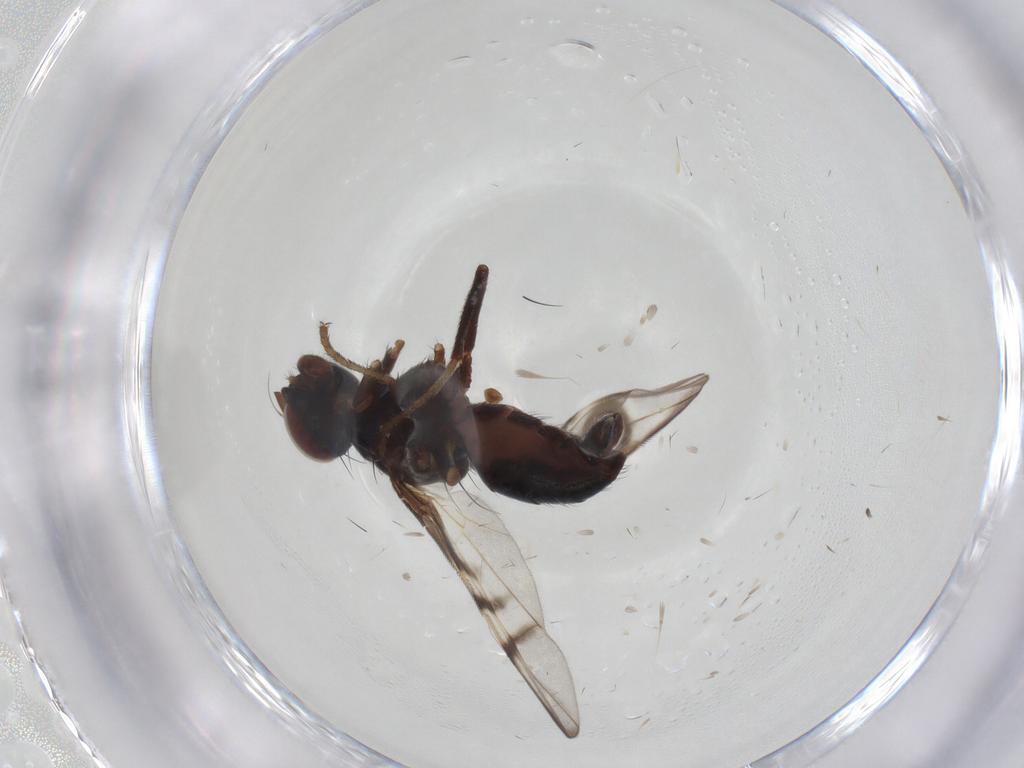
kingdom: Animalia
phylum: Arthropoda
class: Insecta
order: Diptera
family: Platystomatidae
